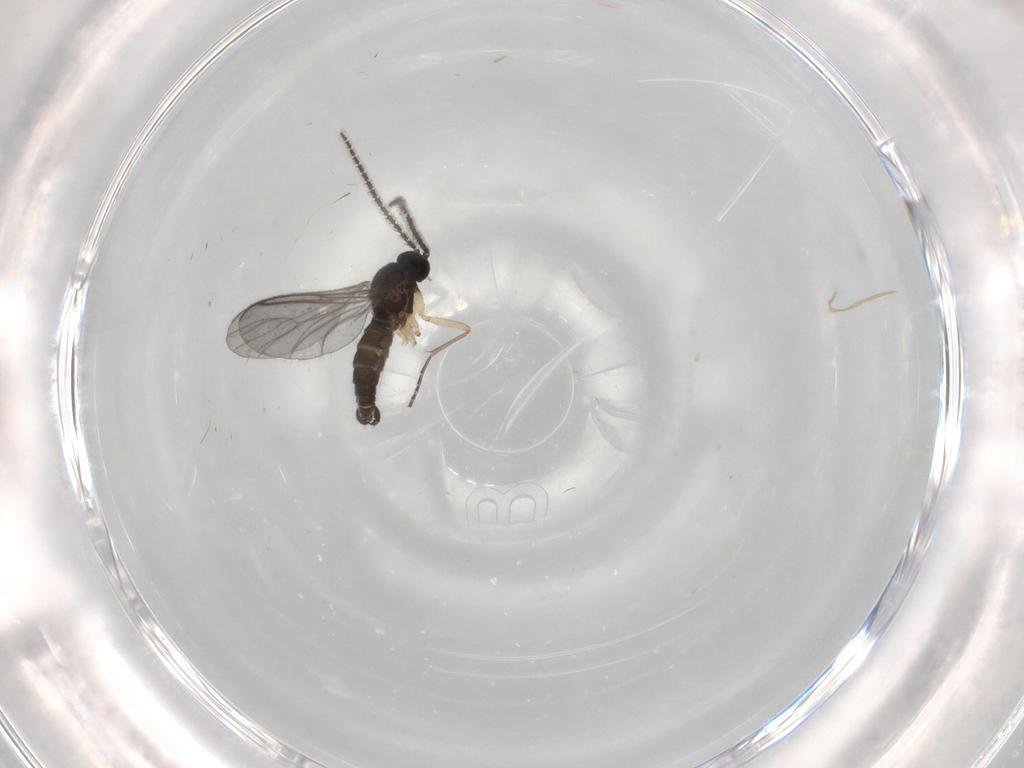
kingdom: Animalia
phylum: Arthropoda
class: Insecta
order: Diptera
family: Sciaridae
